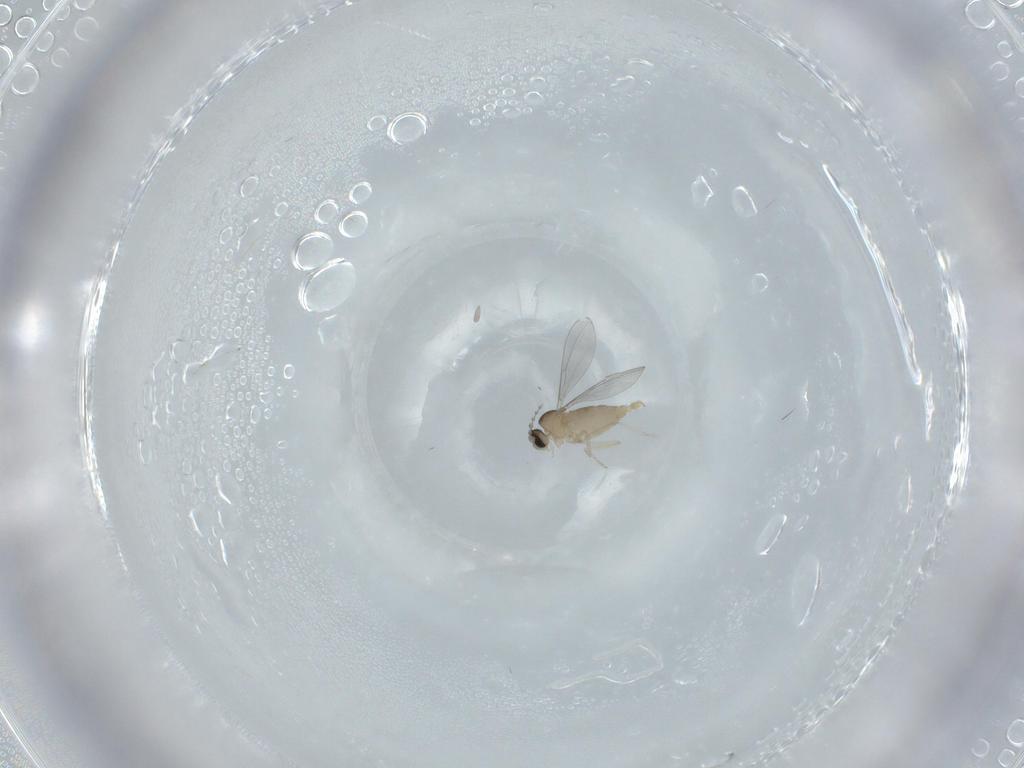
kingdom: Animalia
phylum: Arthropoda
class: Insecta
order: Diptera
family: Cecidomyiidae
